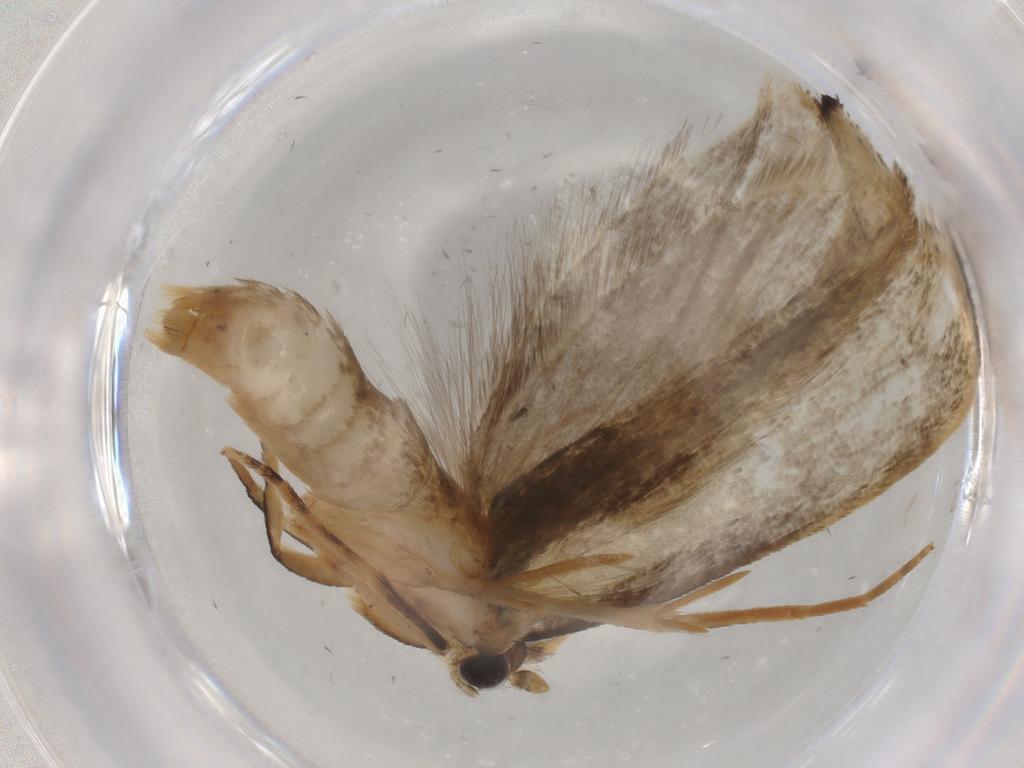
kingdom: Animalia
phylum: Arthropoda
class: Insecta
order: Lepidoptera
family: Tineidae
